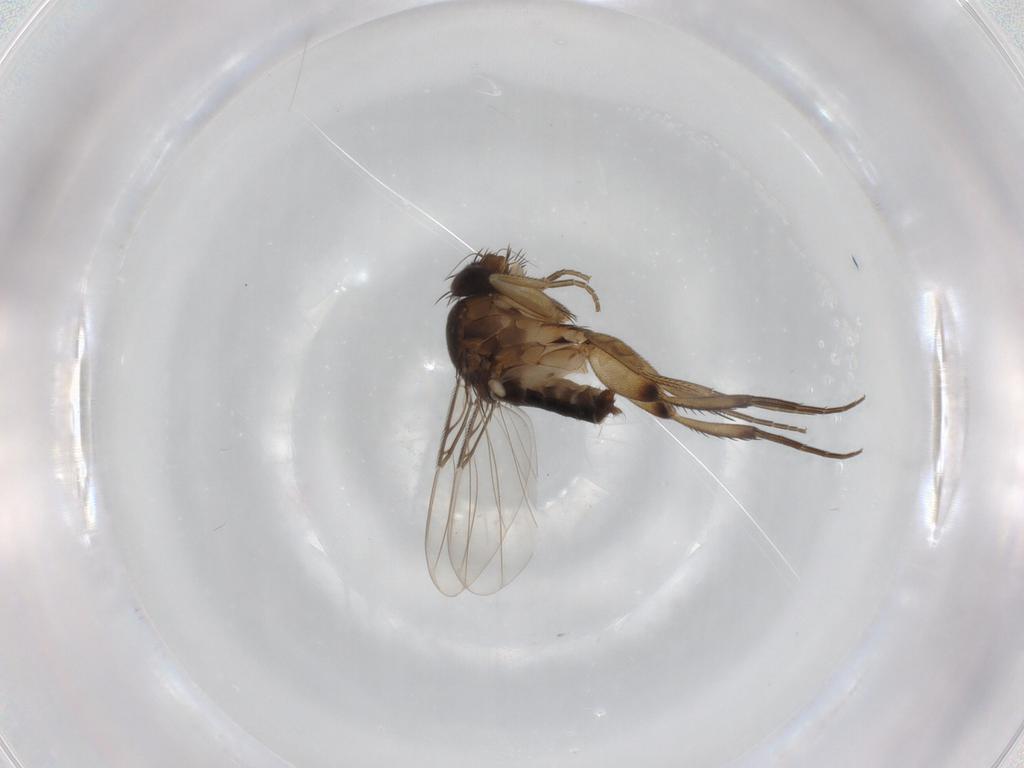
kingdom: Animalia
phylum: Arthropoda
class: Insecta
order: Diptera
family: Phoridae
